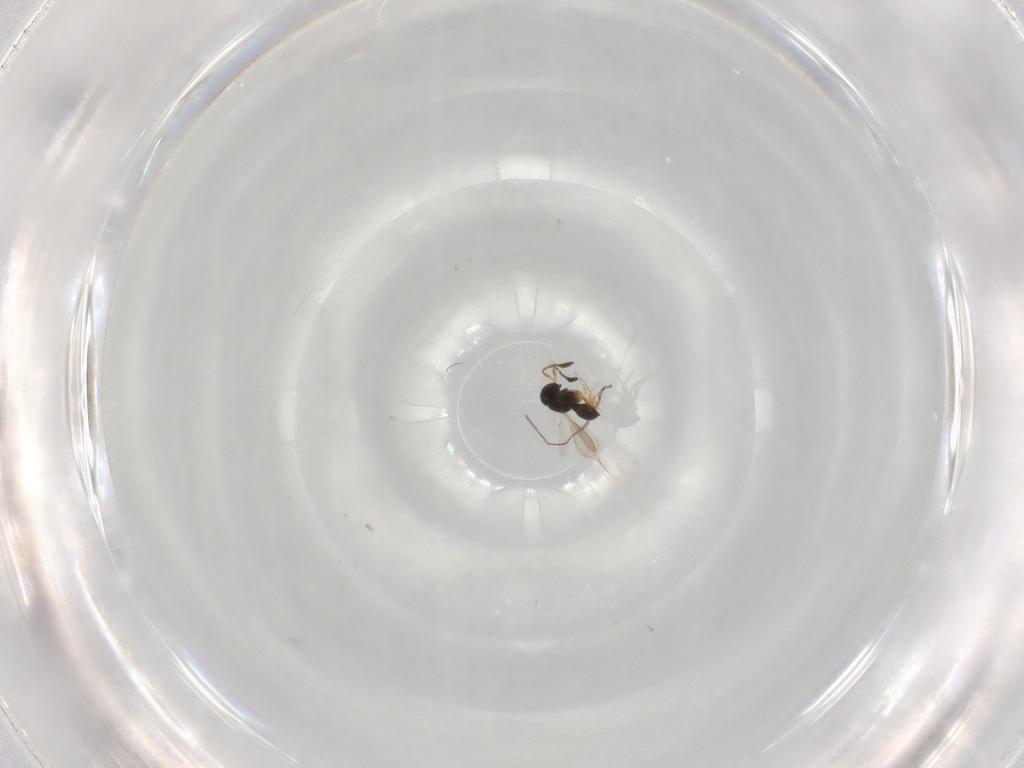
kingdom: Animalia
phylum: Arthropoda
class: Insecta
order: Hymenoptera
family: Scelionidae
